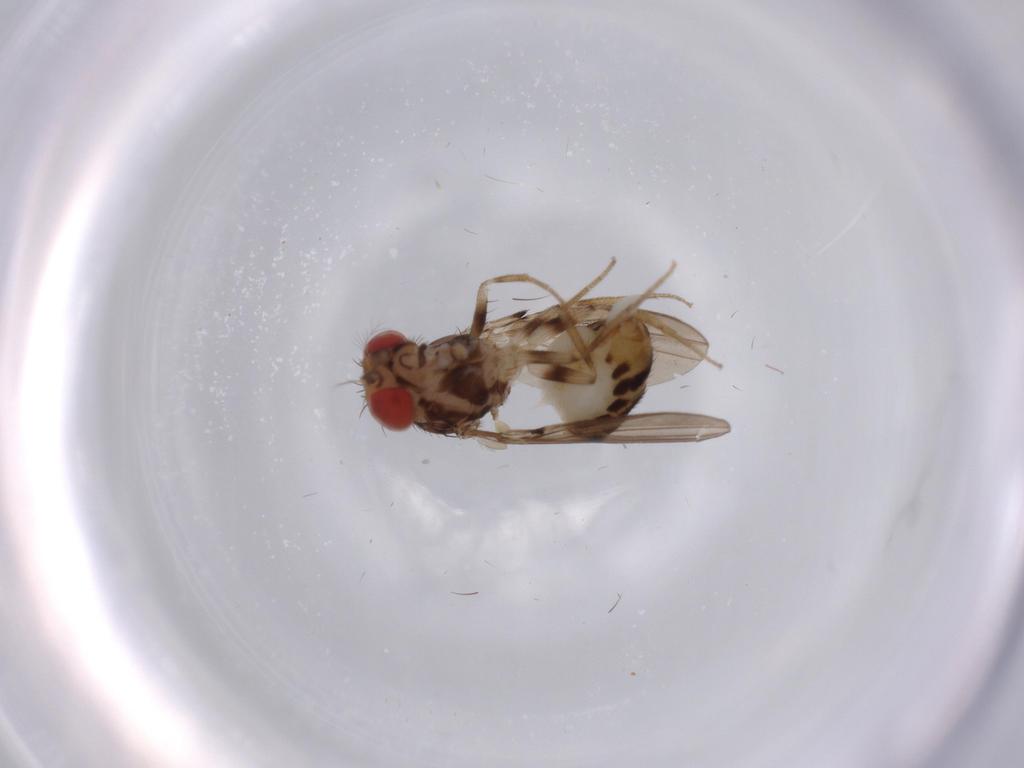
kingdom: Animalia
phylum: Arthropoda
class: Insecta
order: Diptera
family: Drosophilidae
